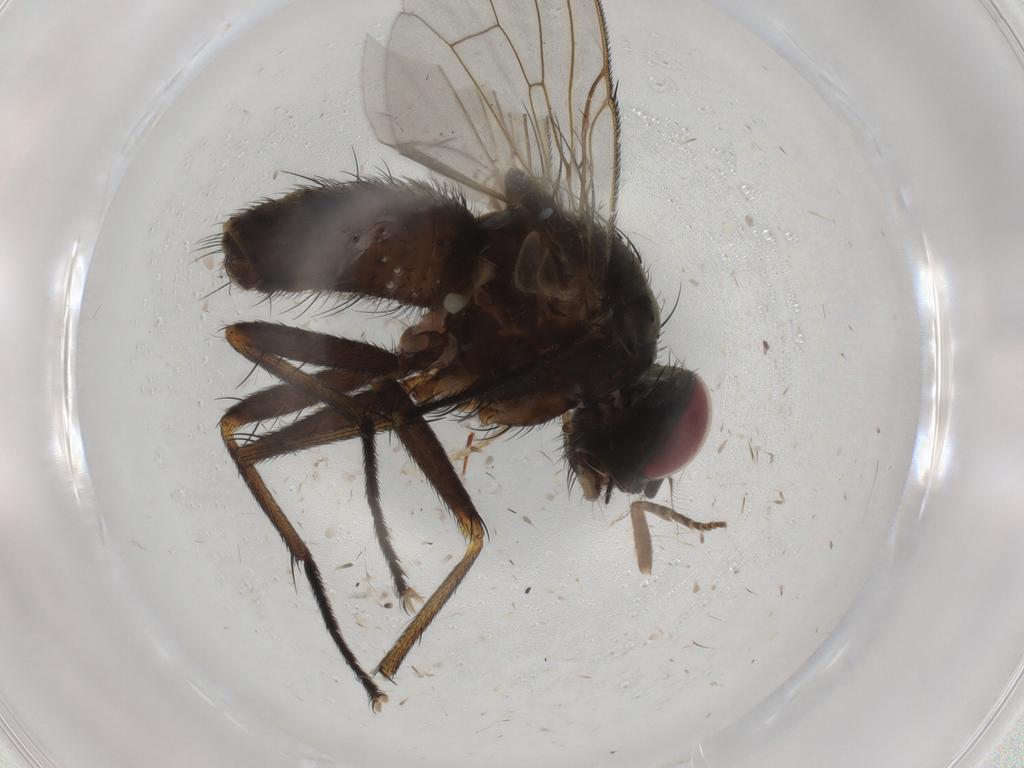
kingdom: Animalia
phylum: Arthropoda
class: Insecta
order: Diptera
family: Muscidae
